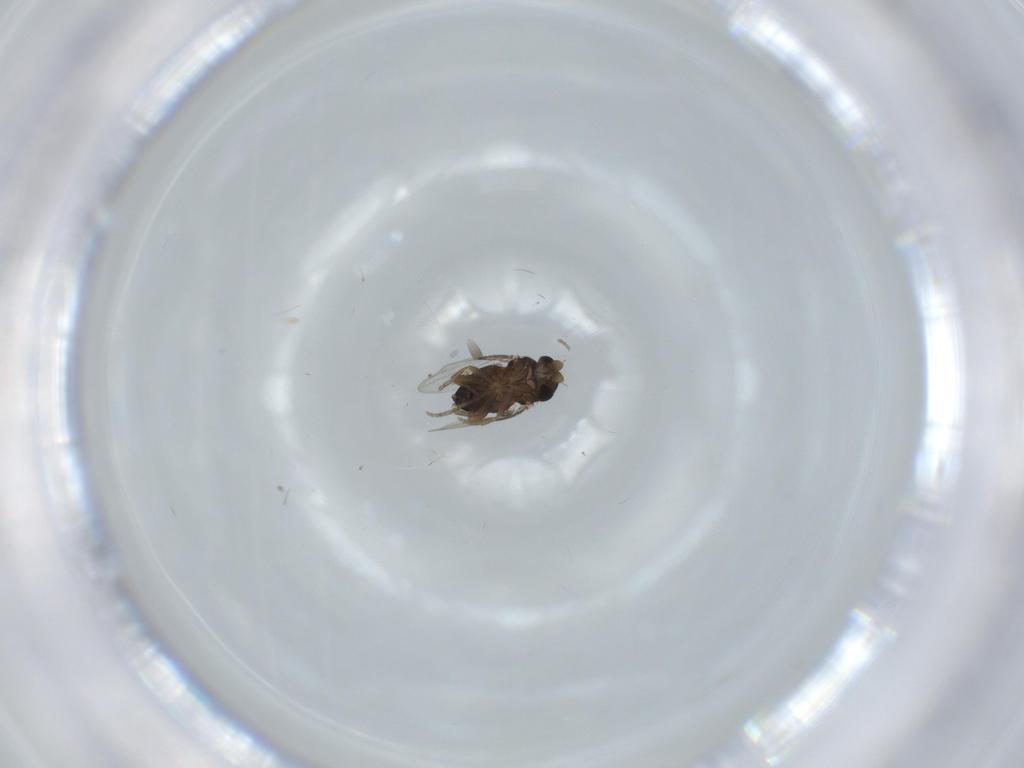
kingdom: Animalia
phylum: Arthropoda
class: Insecta
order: Diptera
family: Phoridae
